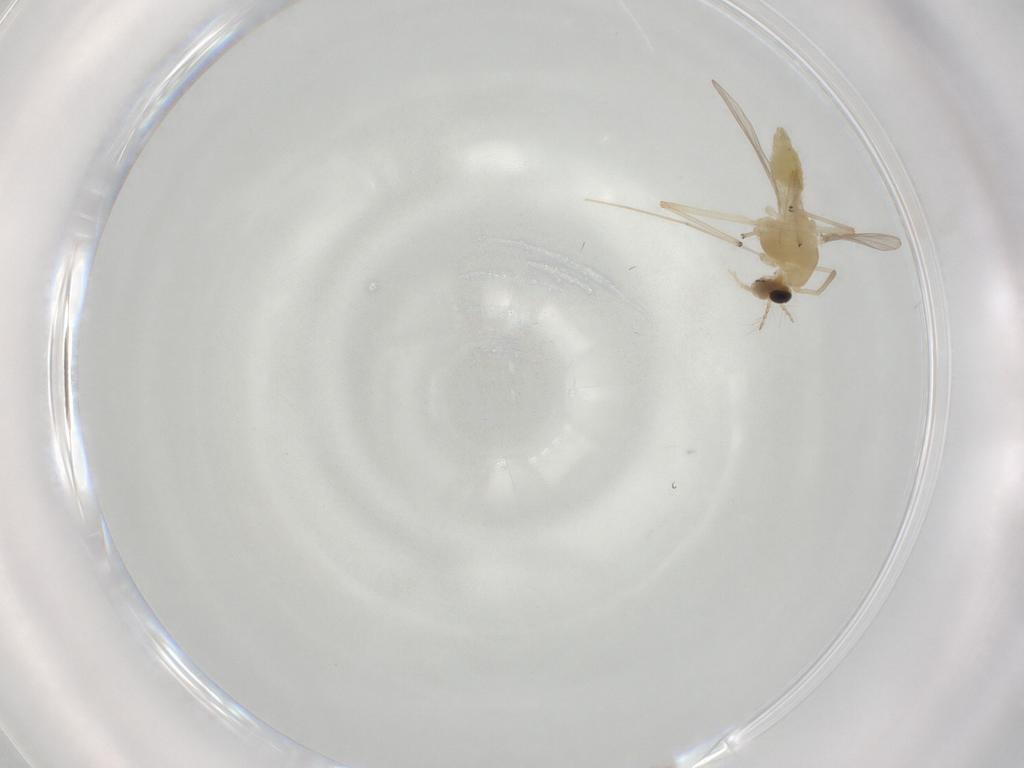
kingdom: Animalia
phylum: Arthropoda
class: Insecta
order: Diptera
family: Chironomidae
